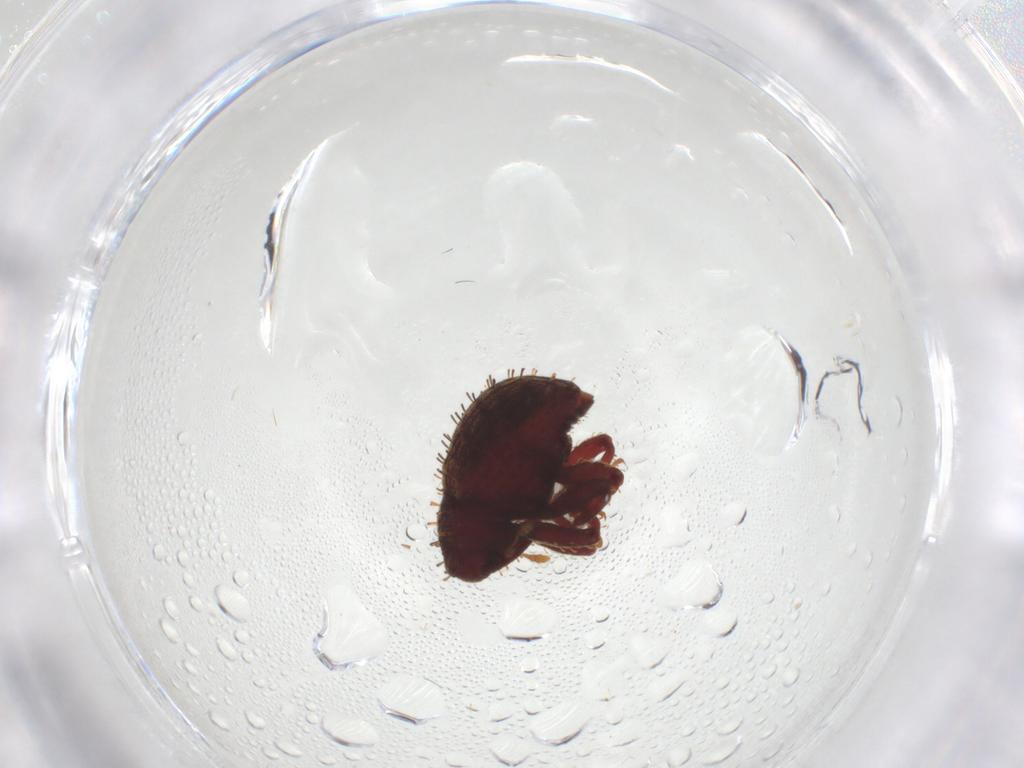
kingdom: Animalia
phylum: Arthropoda
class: Insecta
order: Coleoptera
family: Curculionidae
